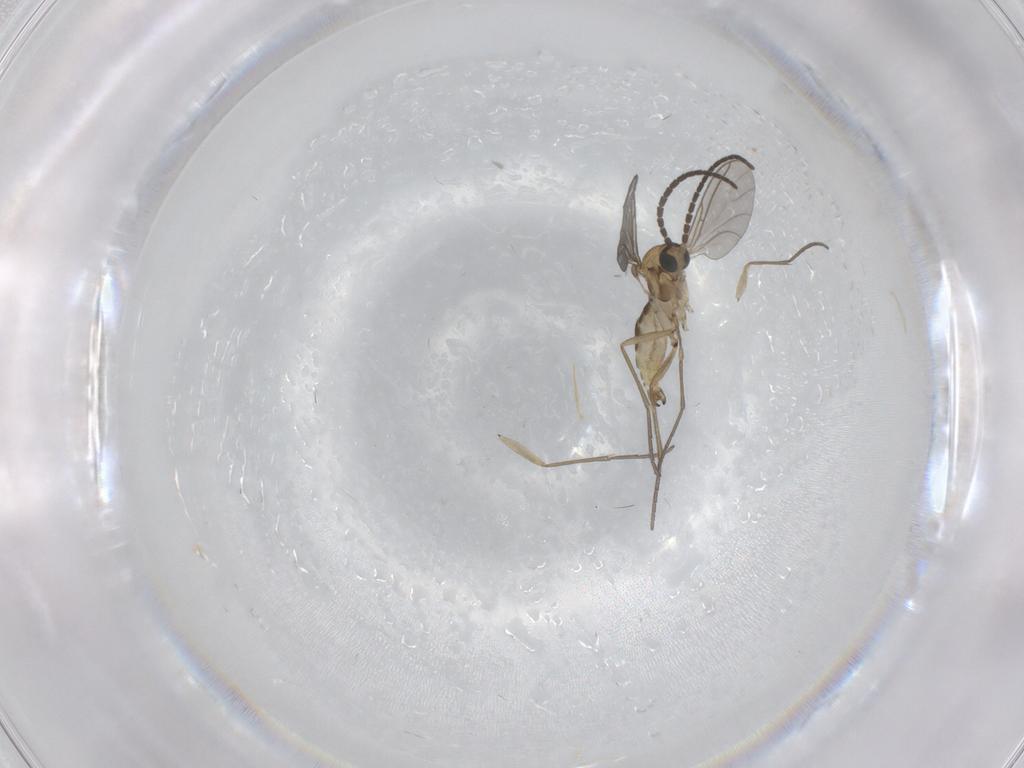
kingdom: Animalia
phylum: Arthropoda
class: Insecta
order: Diptera
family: Sciaridae
